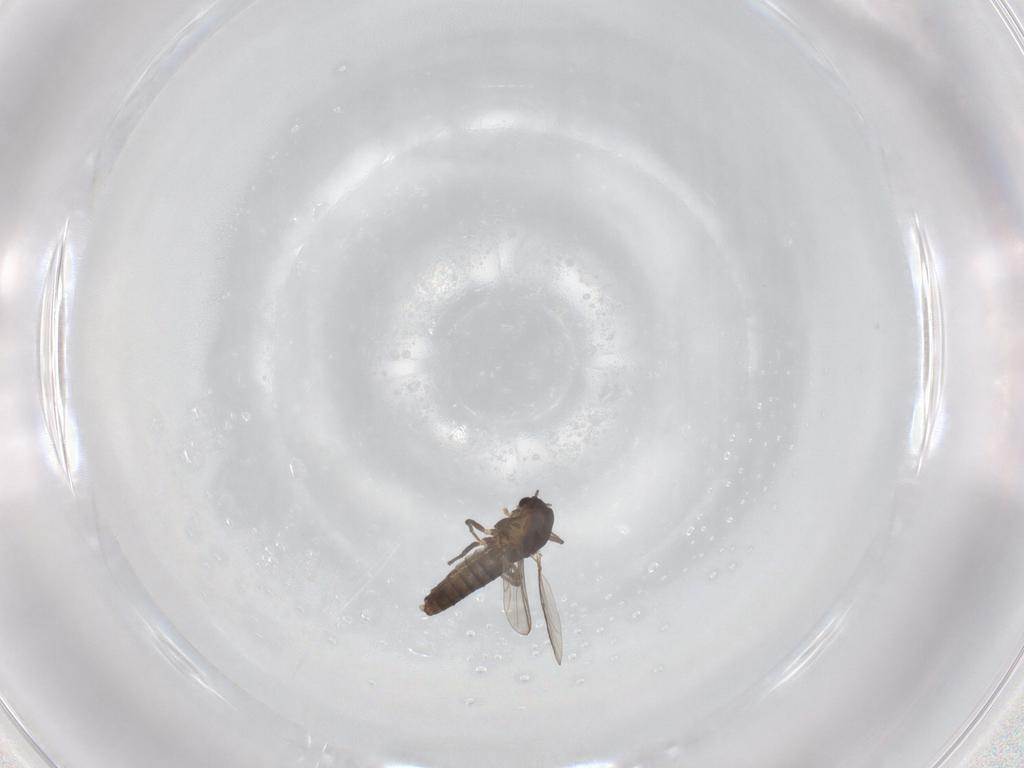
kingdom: Animalia
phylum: Arthropoda
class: Insecta
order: Diptera
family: Chironomidae
